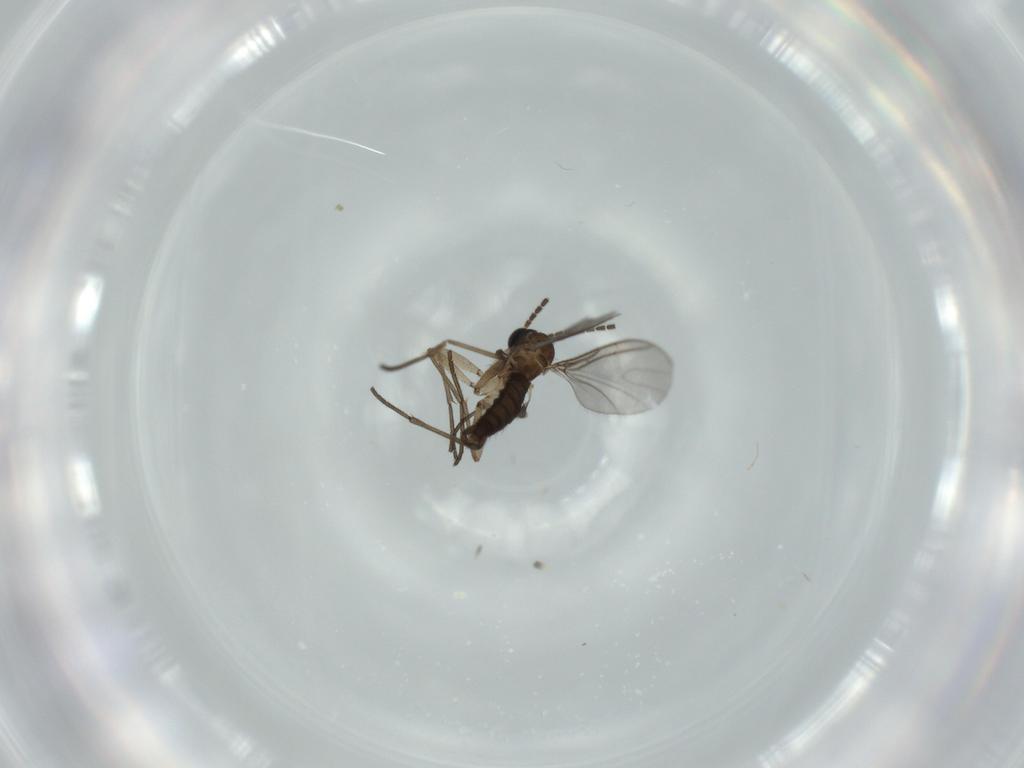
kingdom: Animalia
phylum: Arthropoda
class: Insecta
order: Diptera
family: Sciaridae
